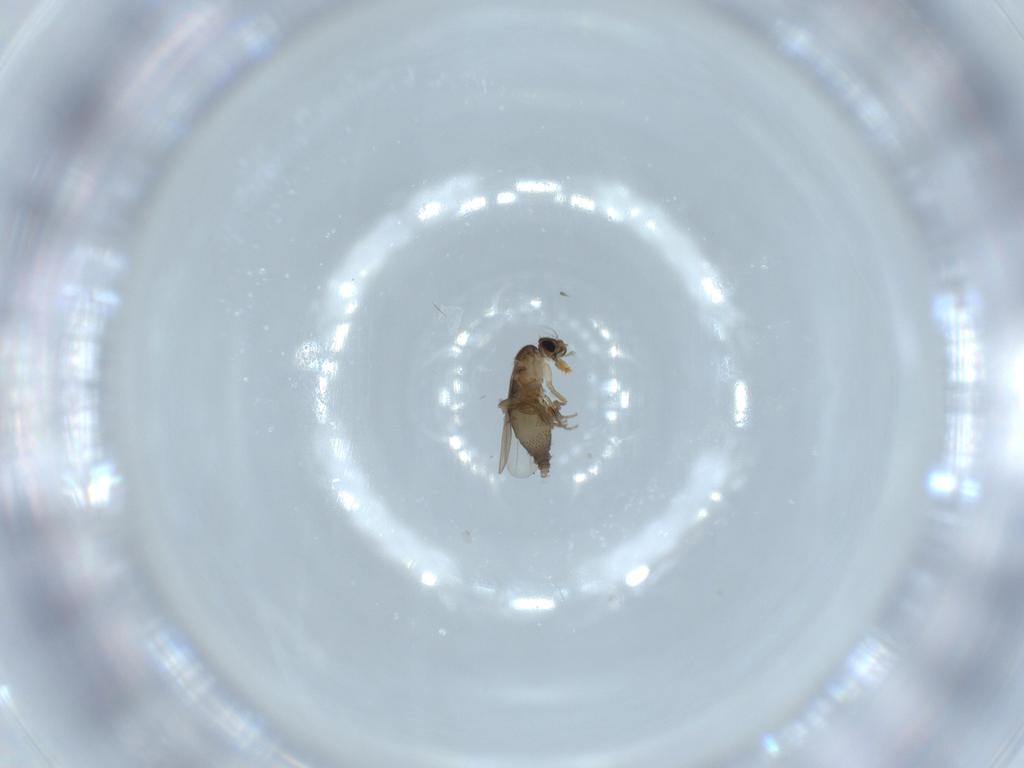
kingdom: Animalia
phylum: Arthropoda
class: Insecta
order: Diptera
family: Phoridae
